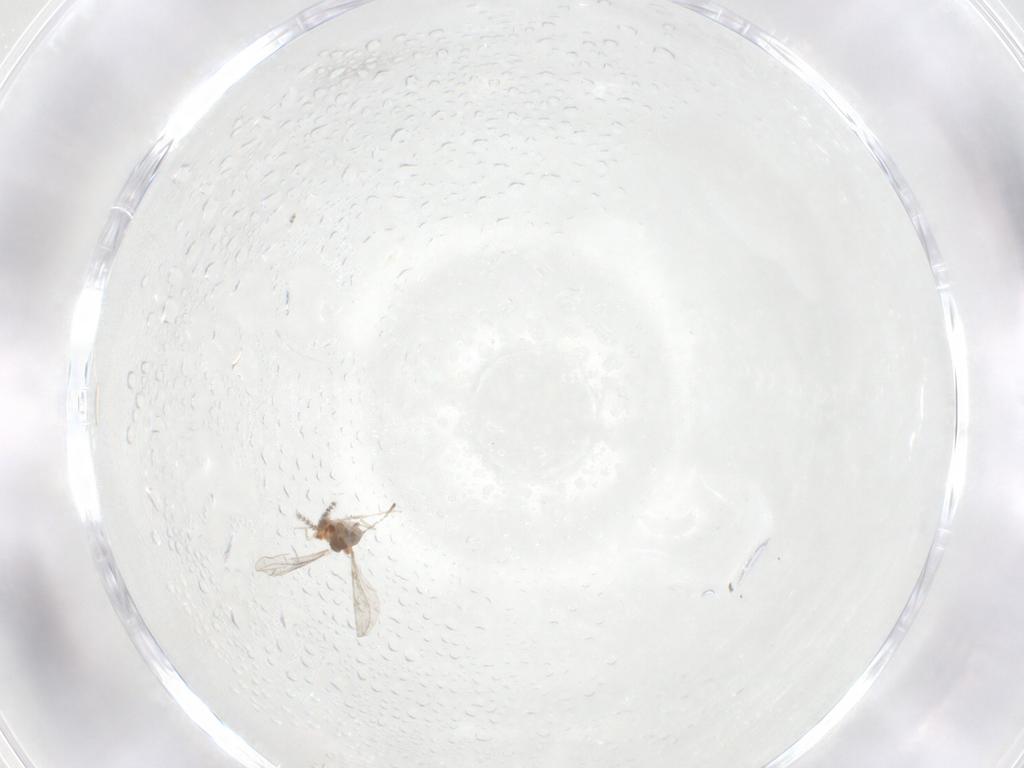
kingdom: Animalia
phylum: Arthropoda
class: Insecta
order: Diptera
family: Cecidomyiidae
